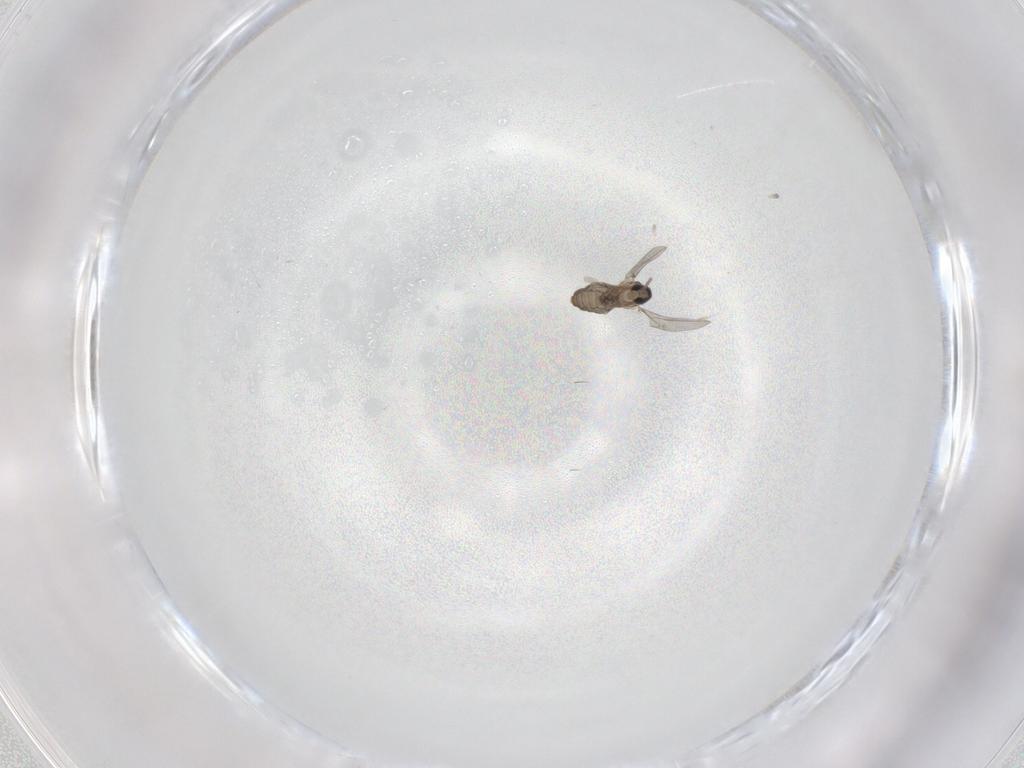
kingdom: Animalia
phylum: Arthropoda
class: Insecta
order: Diptera
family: Cecidomyiidae
